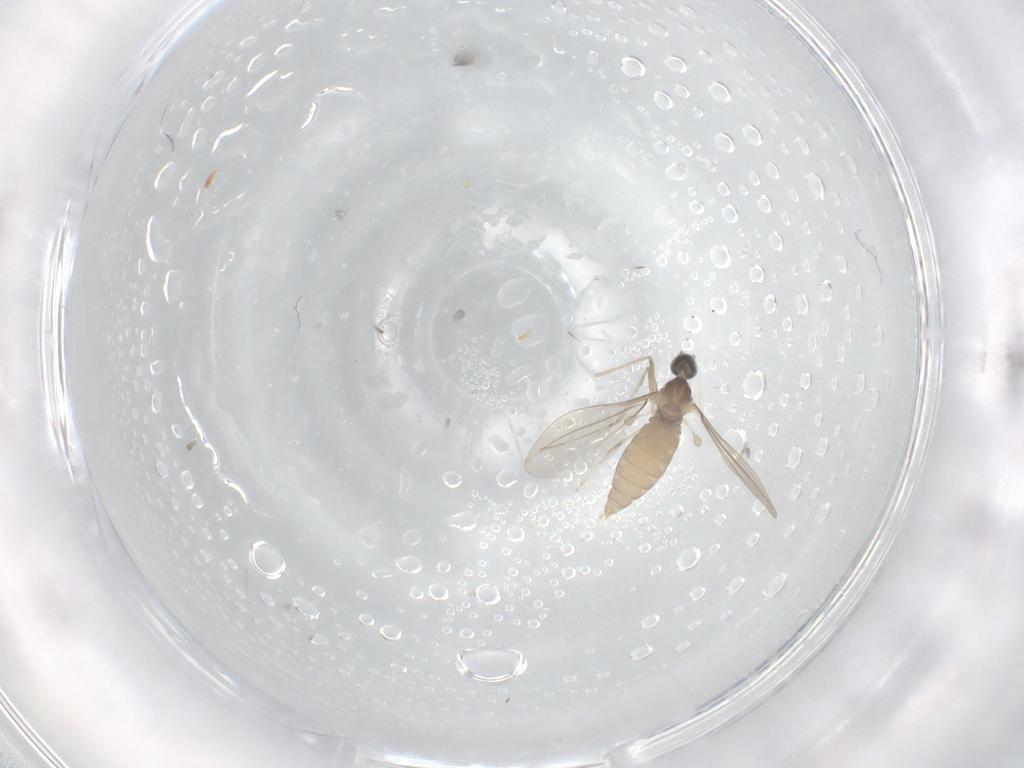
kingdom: Animalia
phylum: Arthropoda
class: Insecta
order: Diptera
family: Cecidomyiidae
